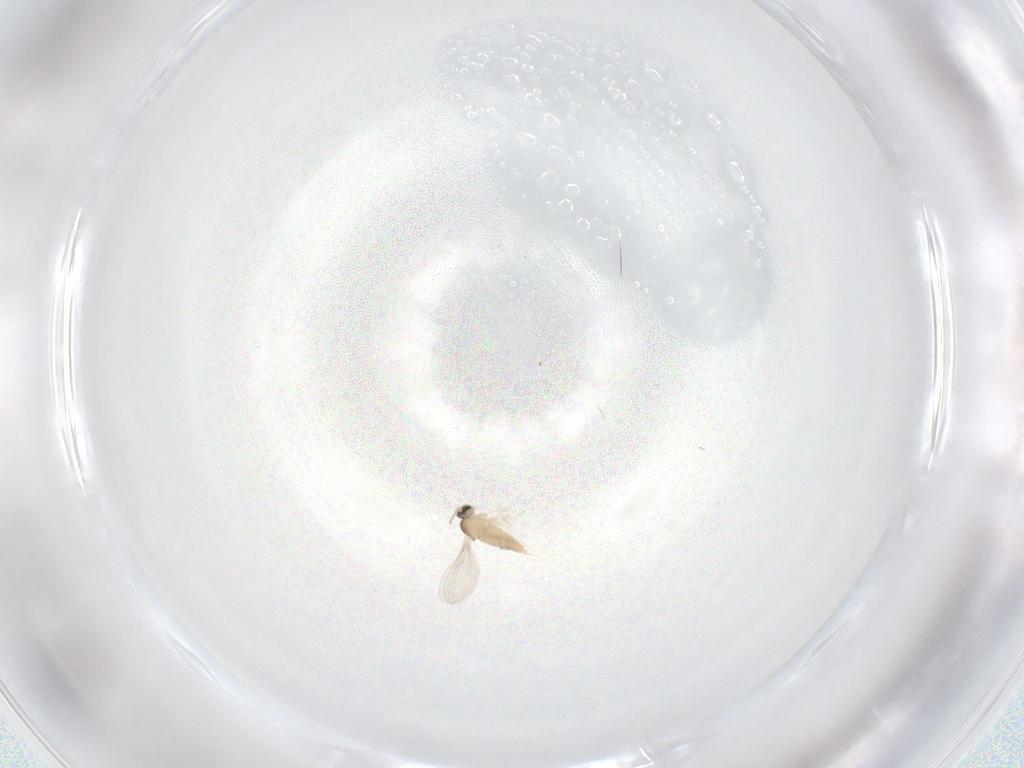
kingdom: Animalia
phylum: Arthropoda
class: Insecta
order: Diptera
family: Cecidomyiidae
